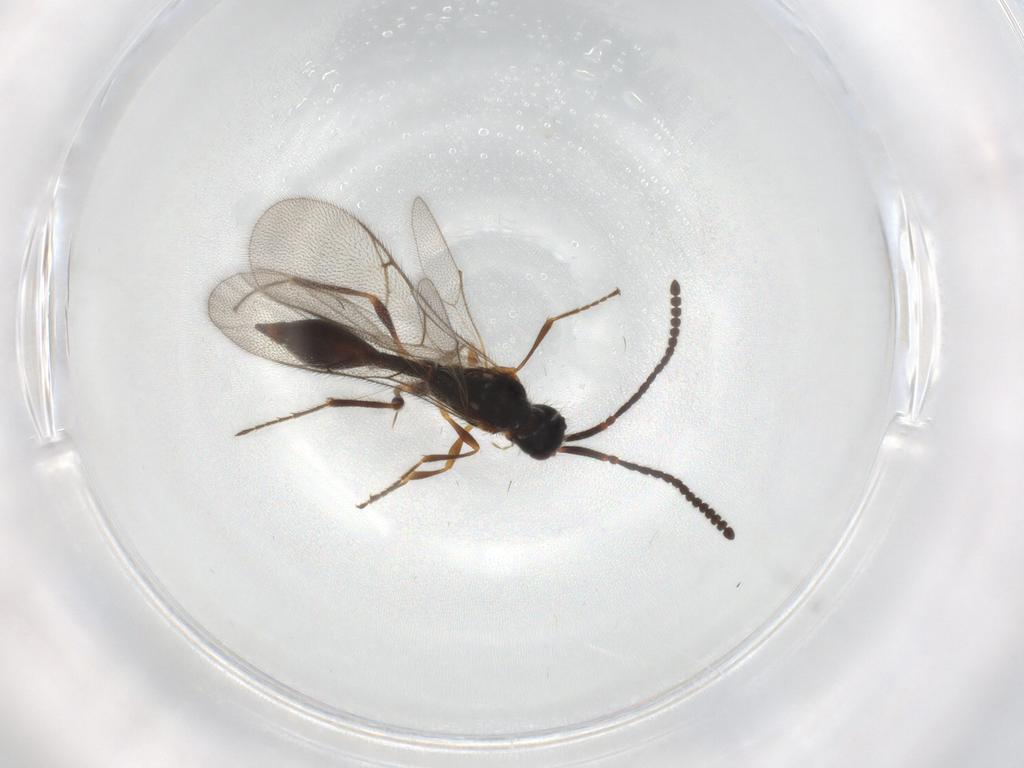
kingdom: Animalia
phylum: Arthropoda
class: Insecta
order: Hymenoptera
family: Diapriidae
